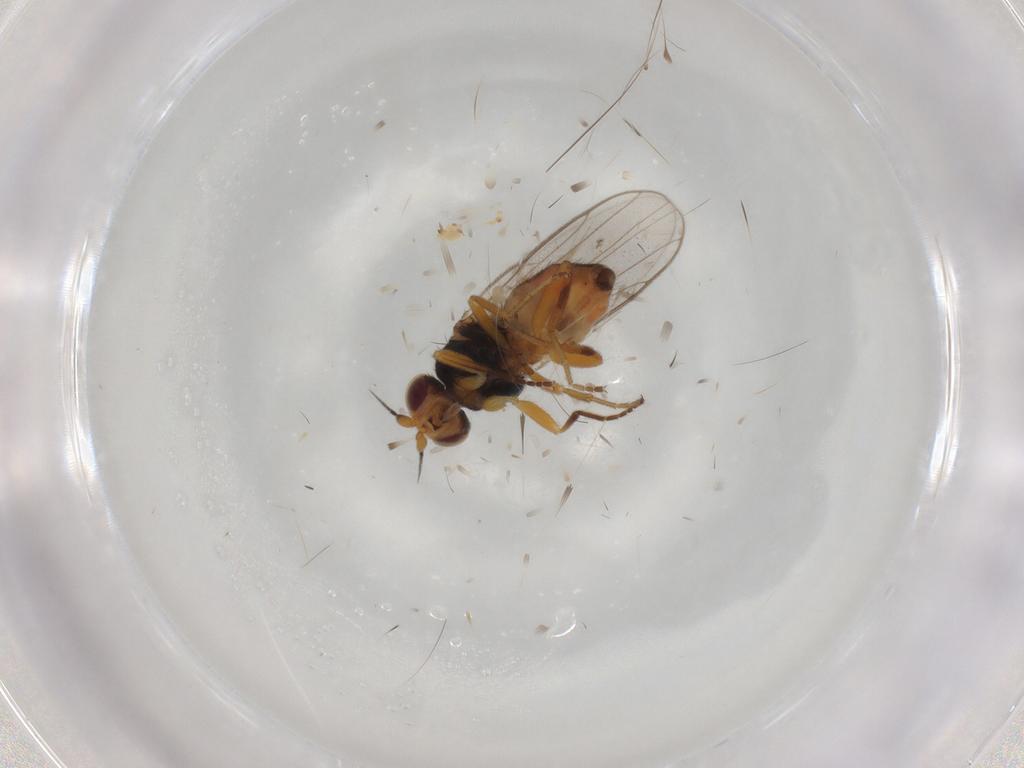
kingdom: Animalia
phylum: Arthropoda
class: Insecta
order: Diptera
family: Chloropidae
